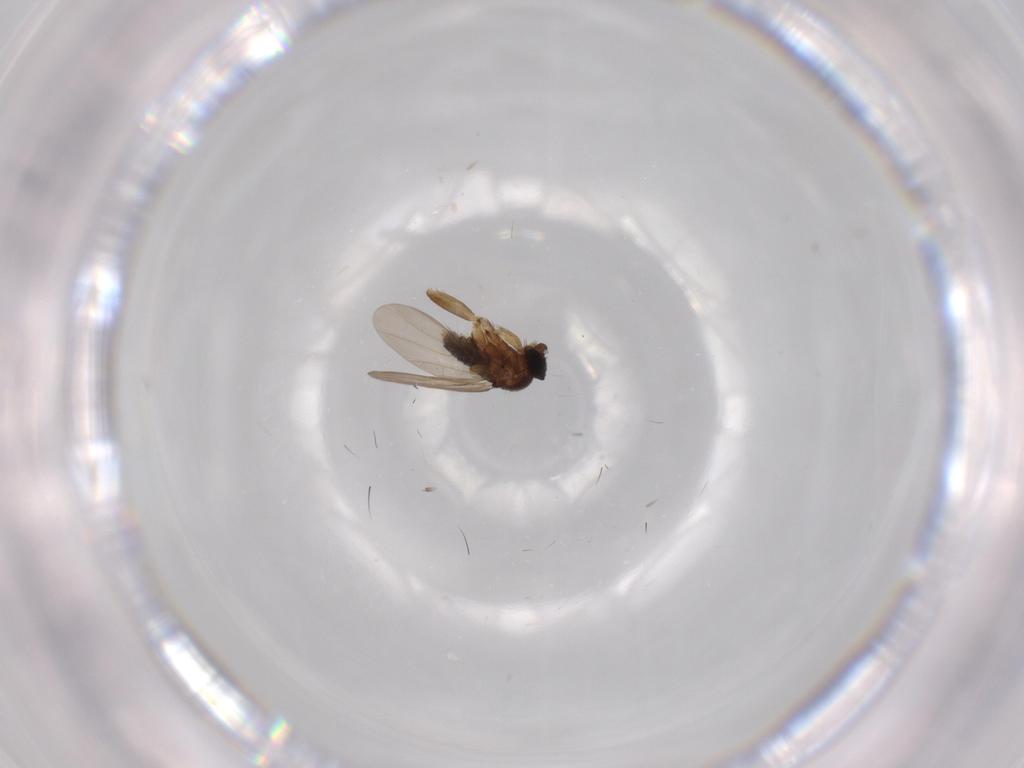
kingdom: Animalia
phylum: Arthropoda
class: Insecta
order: Diptera
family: Phoridae
